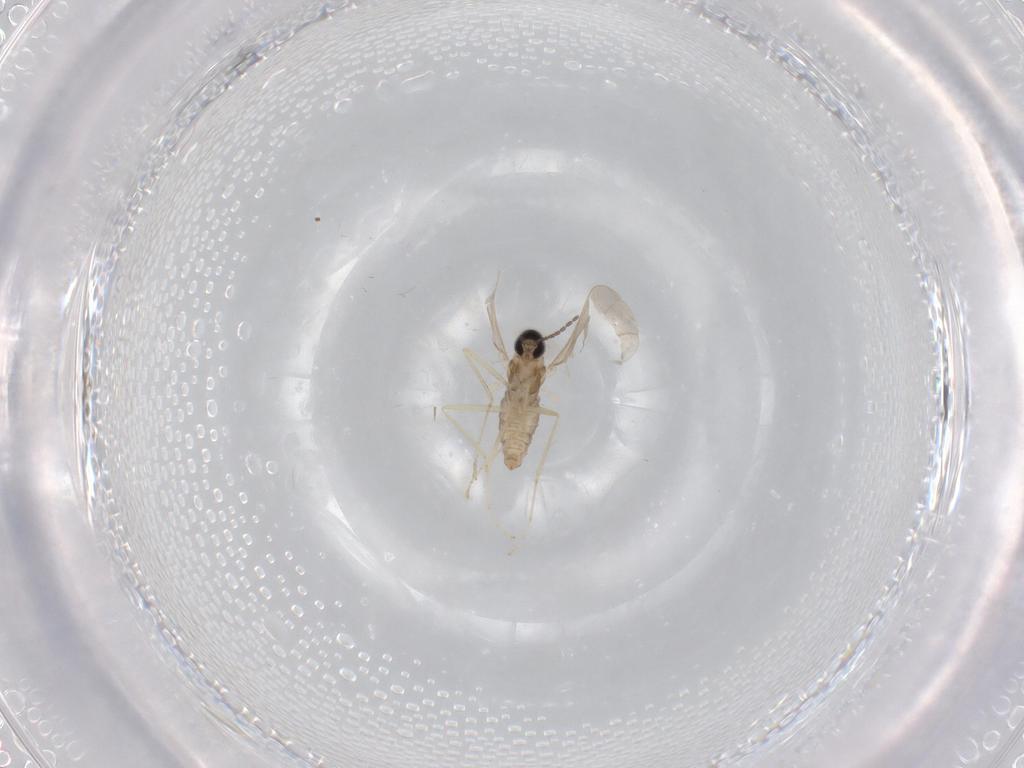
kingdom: Animalia
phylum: Arthropoda
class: Insecta
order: Diptera
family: Cecidomyiidae
